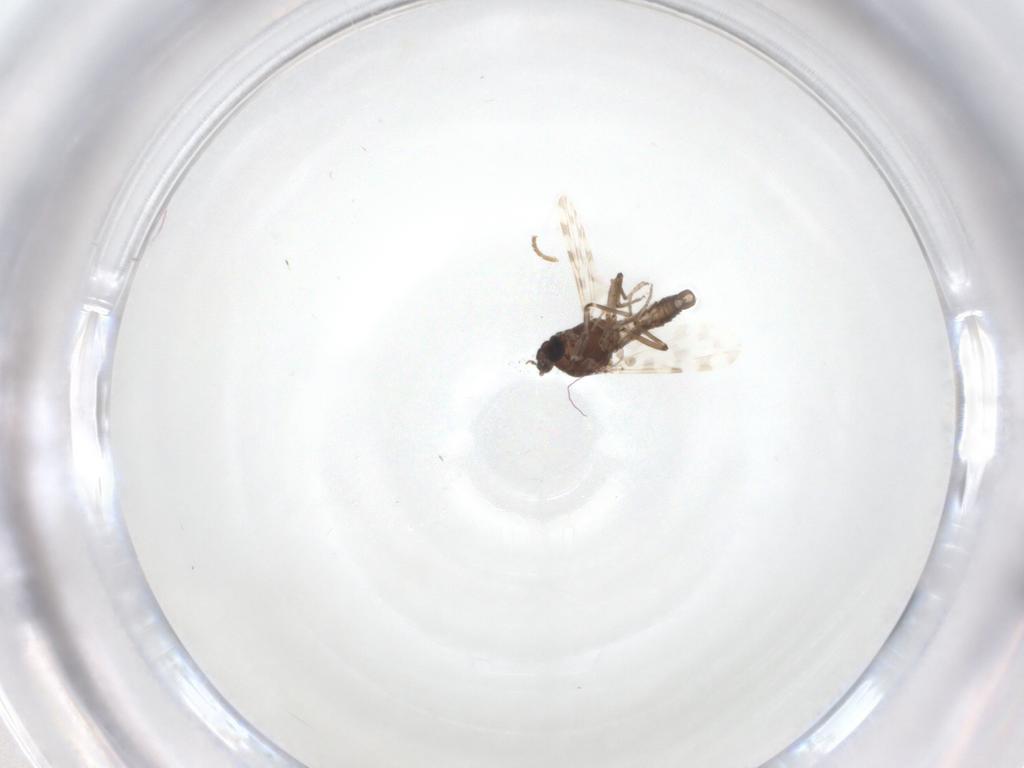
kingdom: Animalia
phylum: Arthropoda
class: Insecta
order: Diptera
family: Ceratopogonidae
